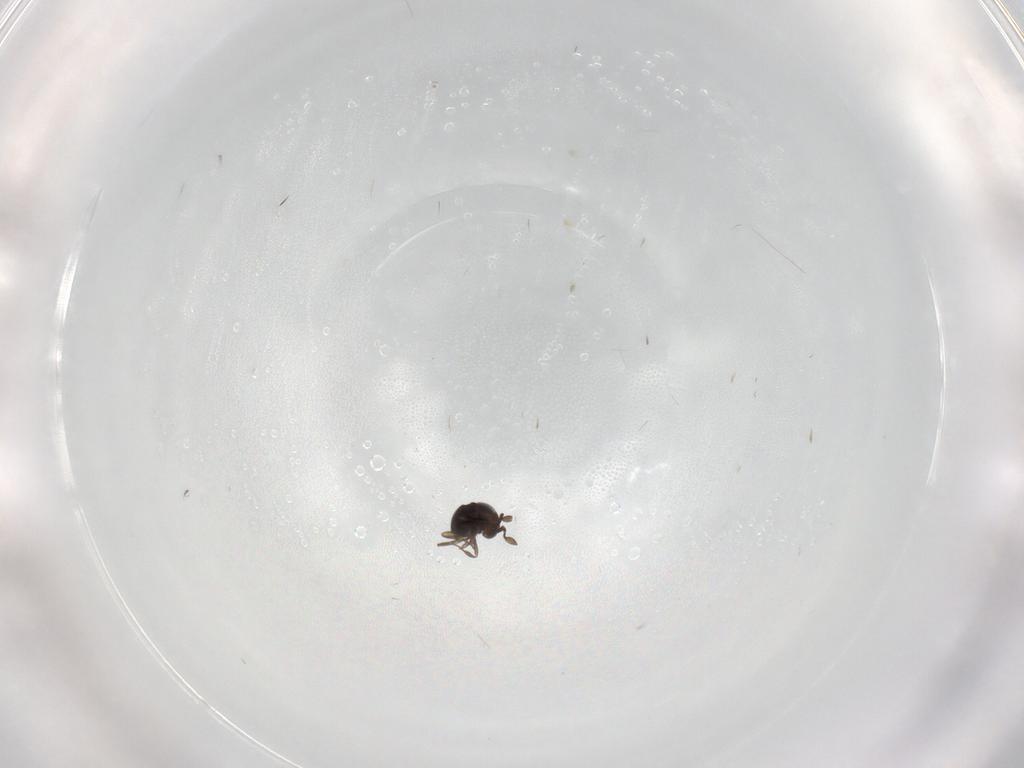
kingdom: Animalia
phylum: Arthropoda
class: Insecta
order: Hymenoptera
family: Scelionidae
